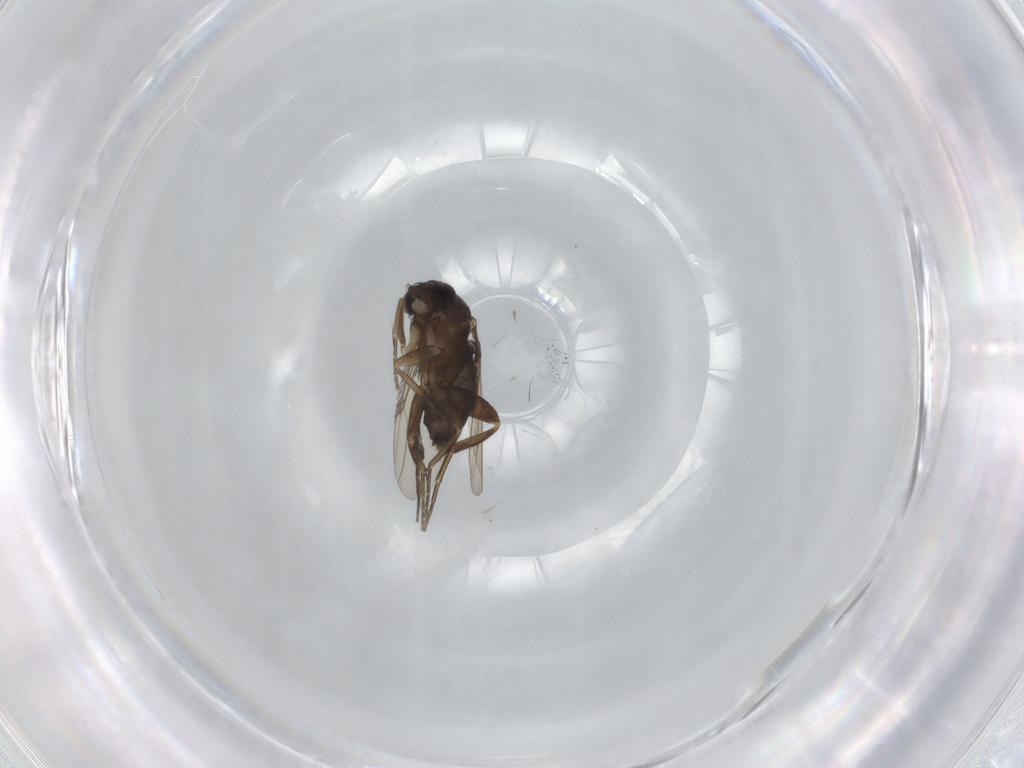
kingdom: Animalia
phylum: Arthropoda
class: Insecta
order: Diptera
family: Phoridae
